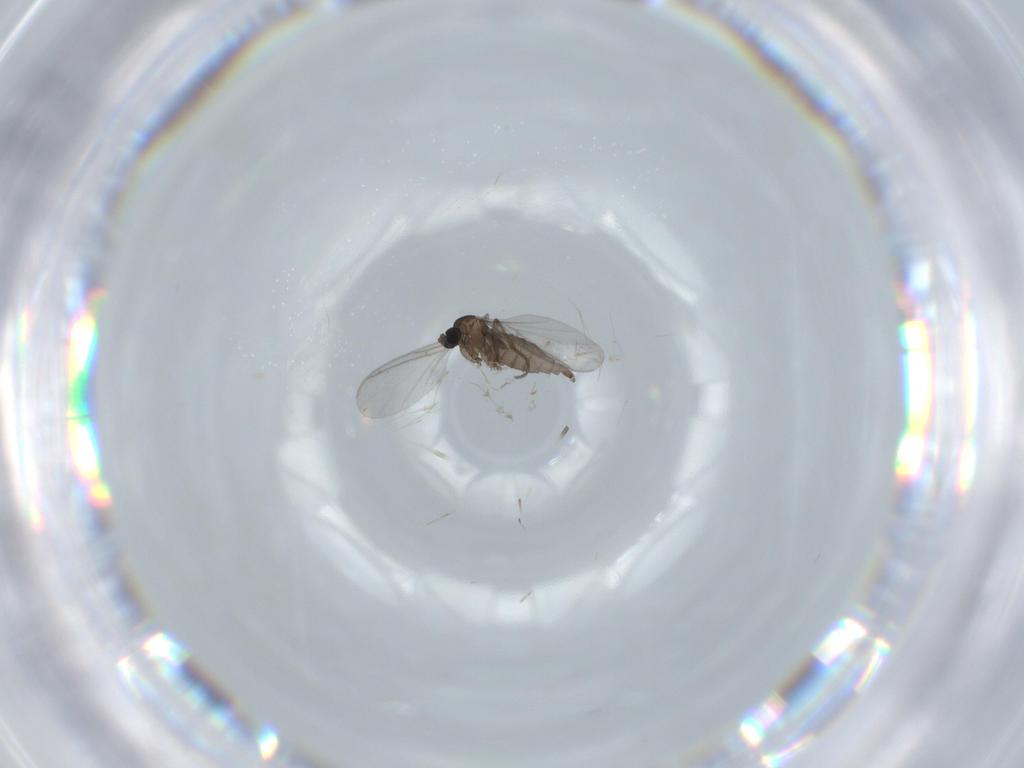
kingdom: Animalia
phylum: Arthropoda
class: Insecta
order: Diptera
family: Sciaridae
